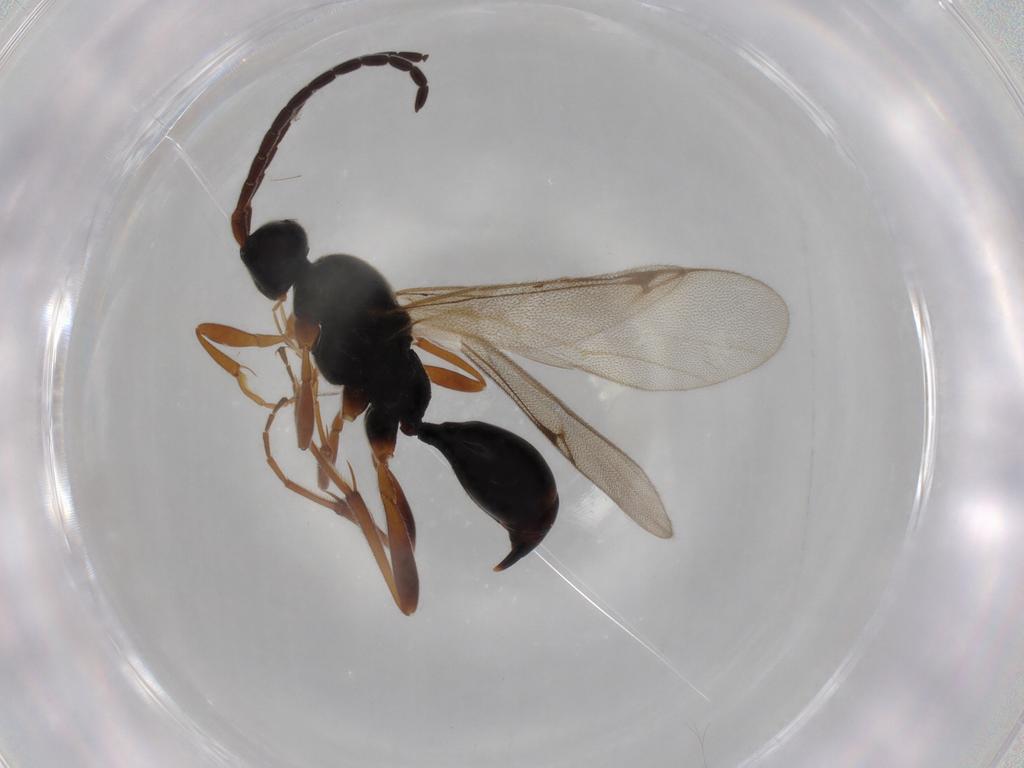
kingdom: Animalia
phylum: Arthropoda
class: Insecta
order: Hymenoptera
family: Proctotrupidae
